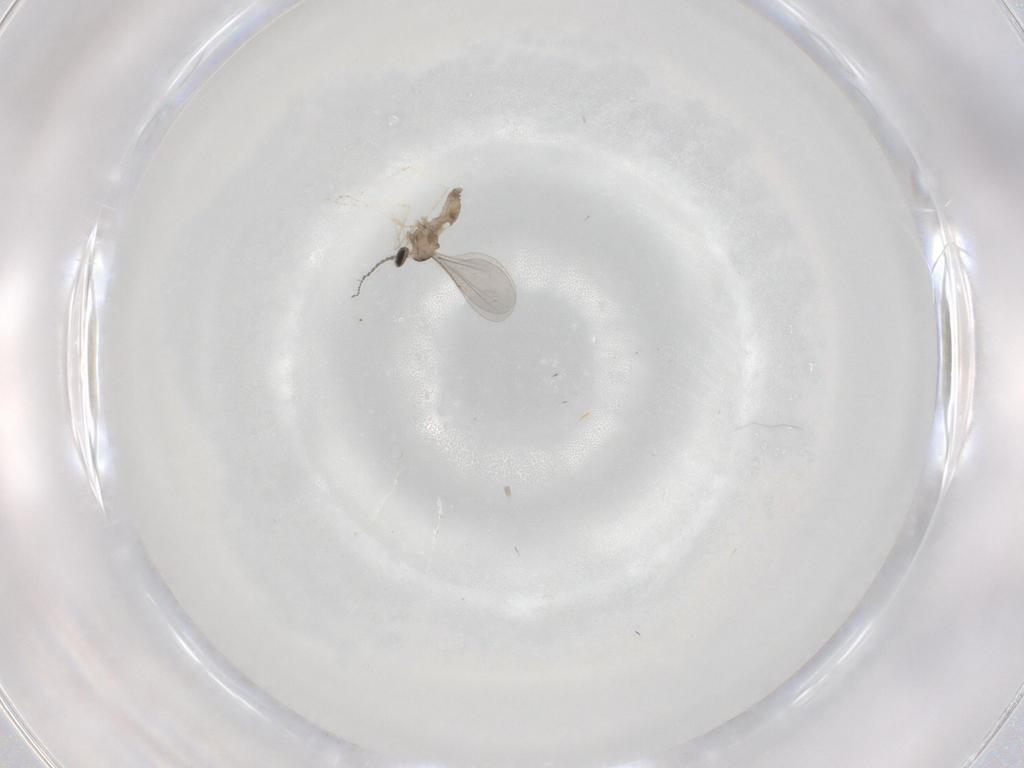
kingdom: Animalia
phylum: Arthropoda
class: Insecta
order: Diptera
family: Cecidomyiidae
